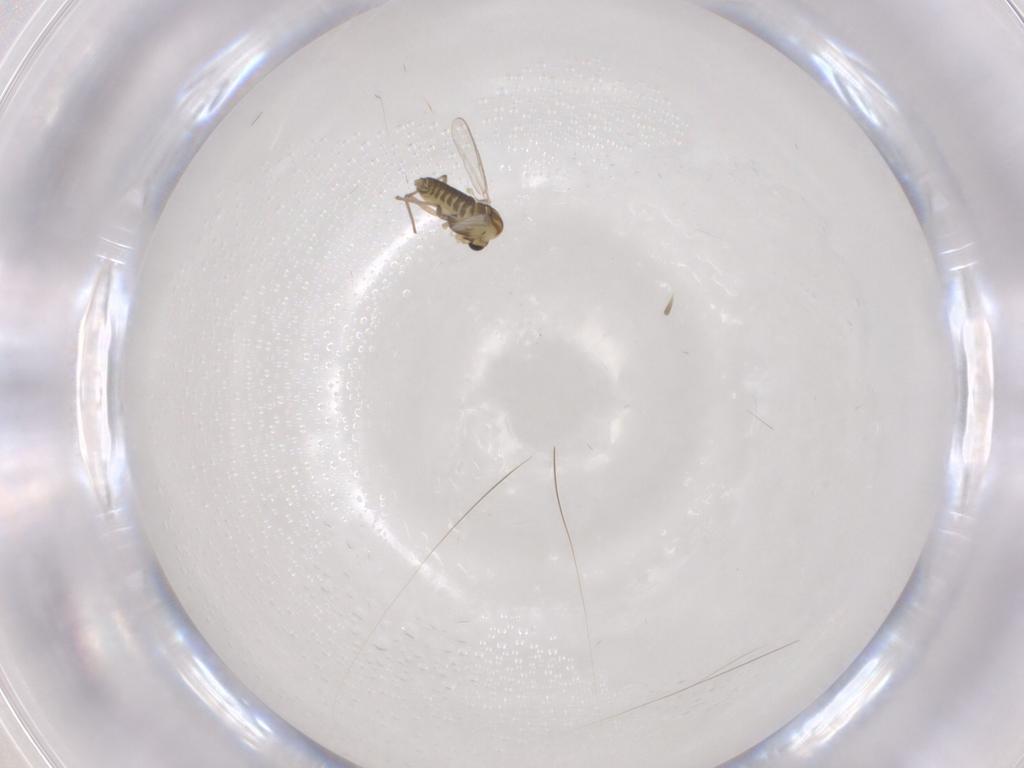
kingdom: Animalia
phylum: Arthropoda
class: Insecta
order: Diptera
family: Chironomidae
